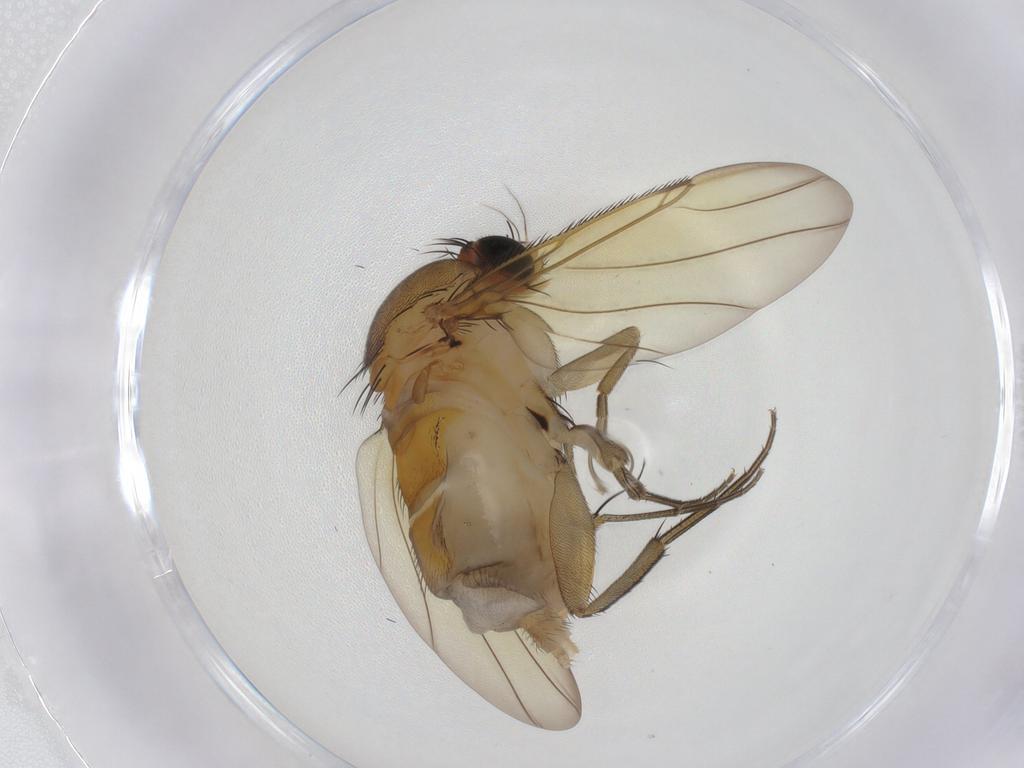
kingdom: Animalia
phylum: Arthropoda
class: Insecta
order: Diptera
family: Phoridae
